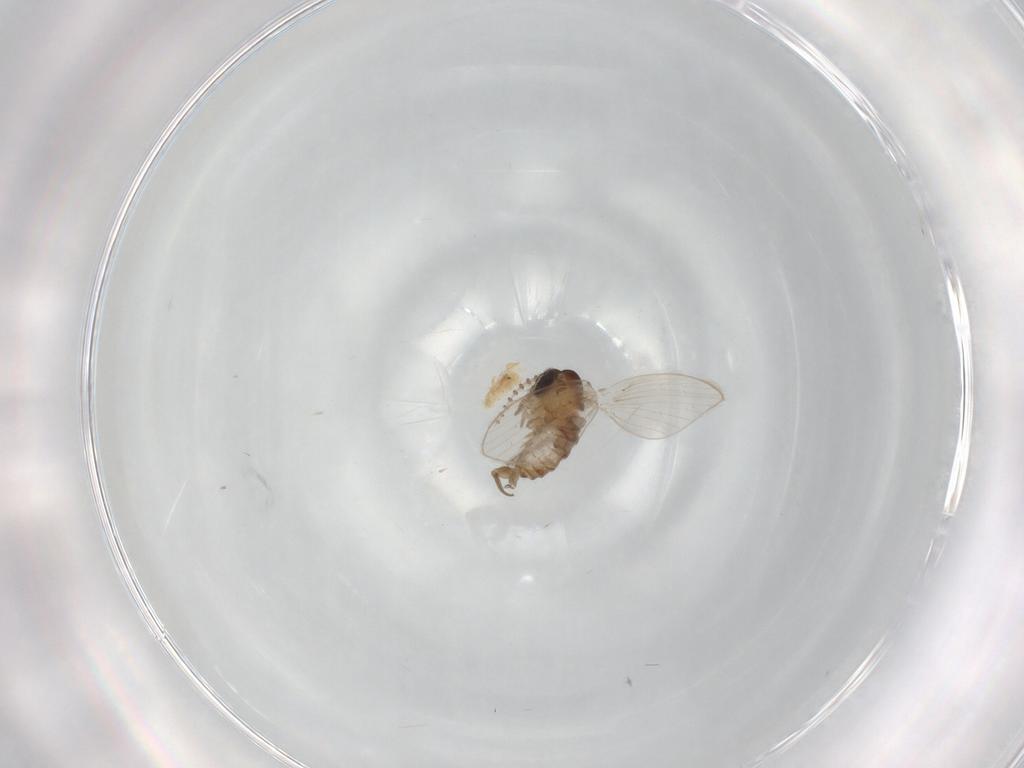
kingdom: Animalia
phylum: Arthropoda
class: Insecta
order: Diptera
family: Psychodidae
